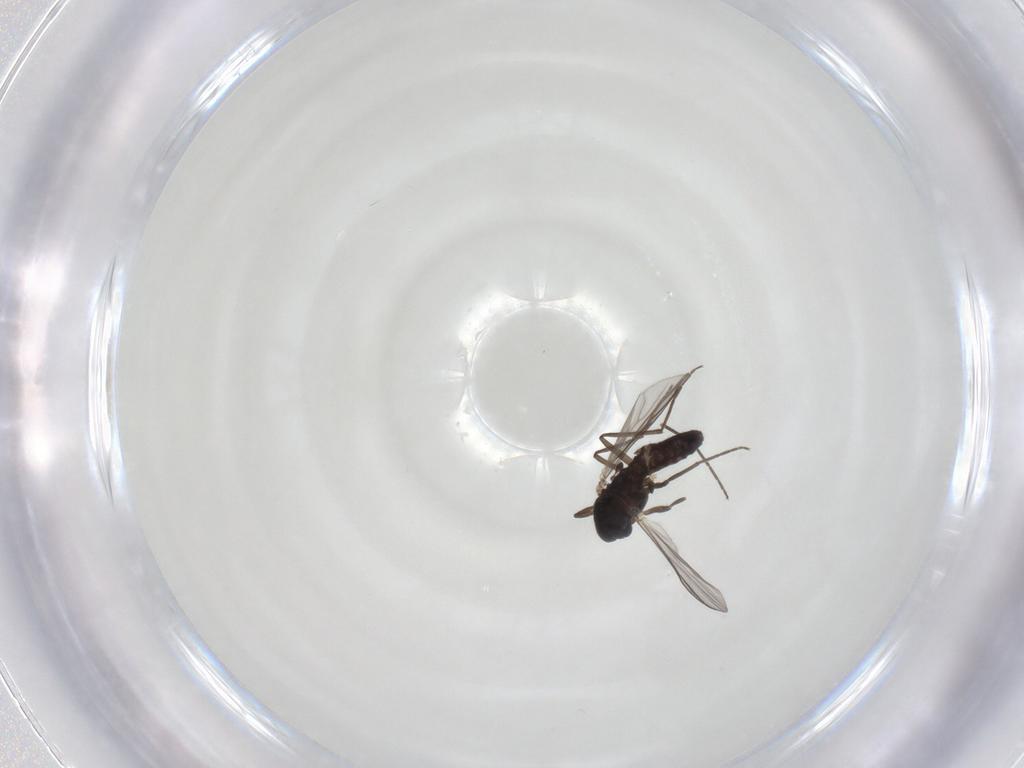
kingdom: Animalia
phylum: Arthropoda
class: Insecta
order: Diptera
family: Chironomidae
